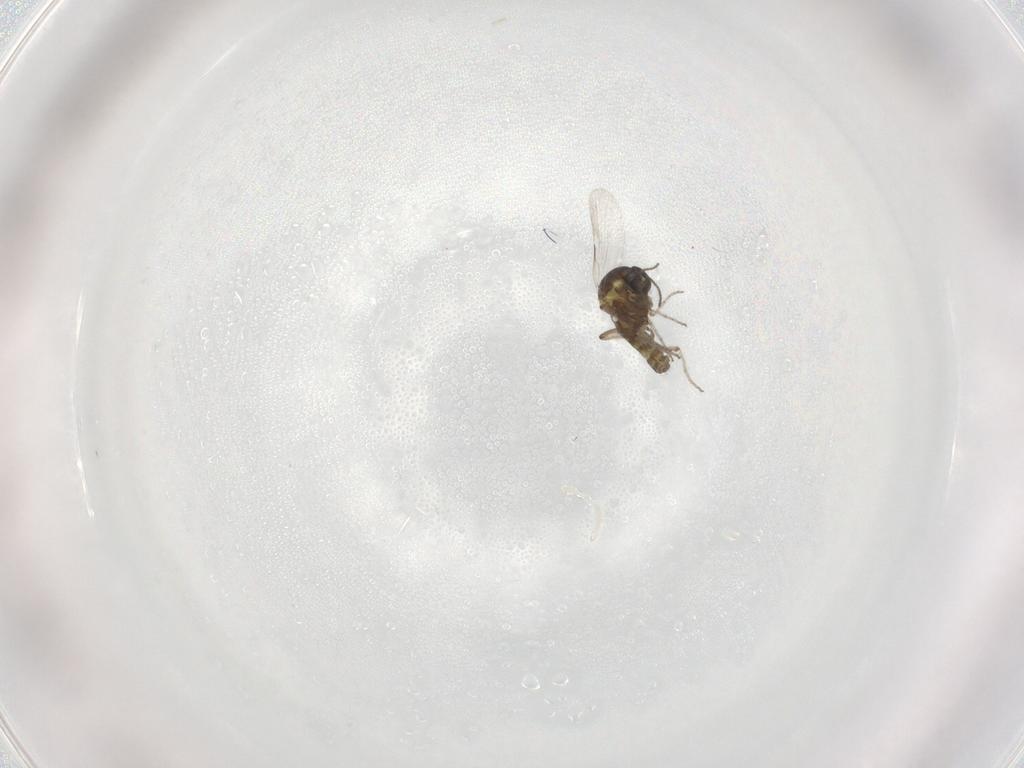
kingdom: Animalia
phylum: Arthropoda
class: Insecta
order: Diptera
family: Ceratopogonidae
